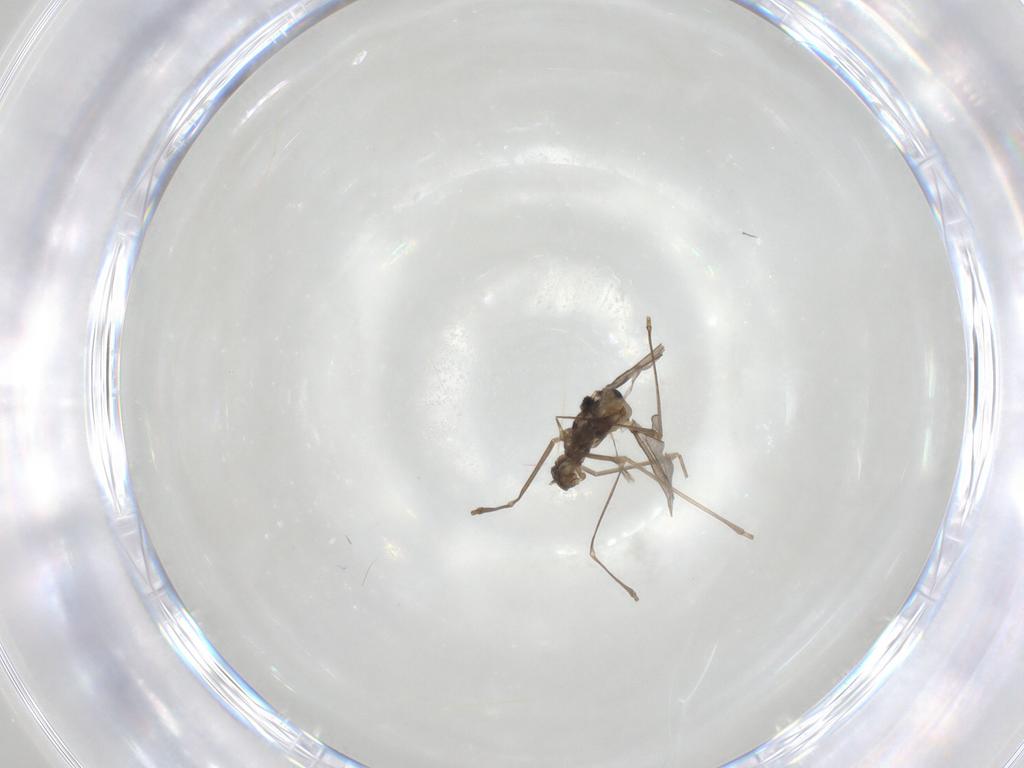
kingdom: Animalia
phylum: Arthropoda
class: Insecta
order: Diptera
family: Cecidomyiidae
